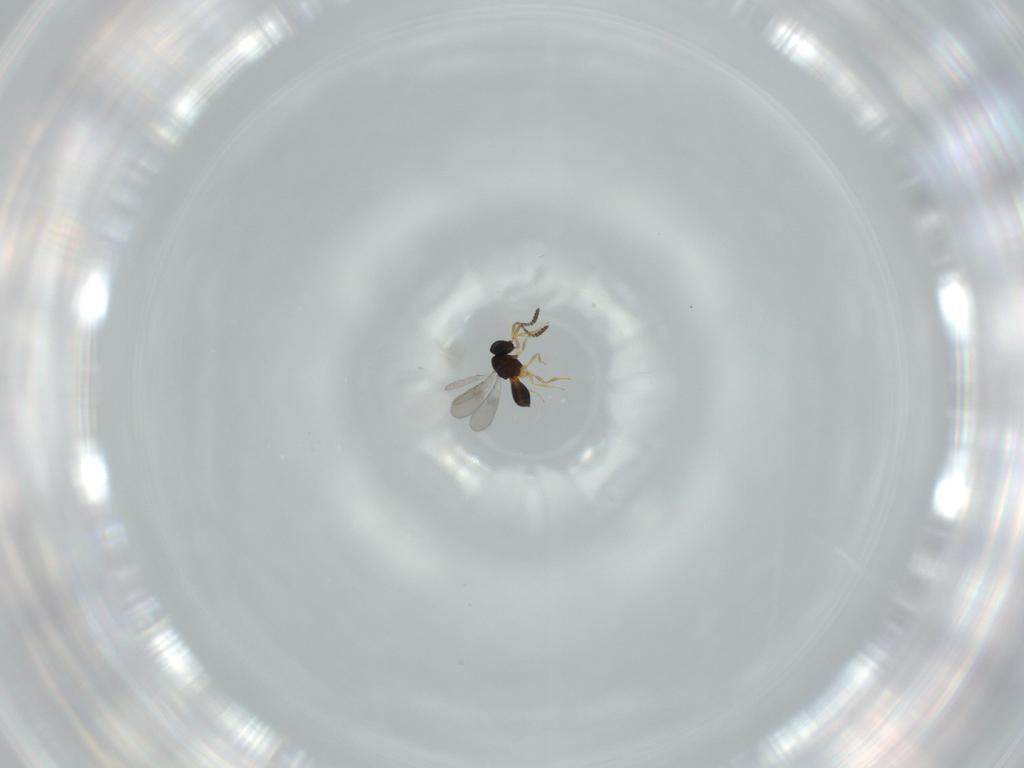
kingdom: Animalia
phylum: Arthropoda
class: Insecta
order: Hymenoptera
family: Scelionidae
